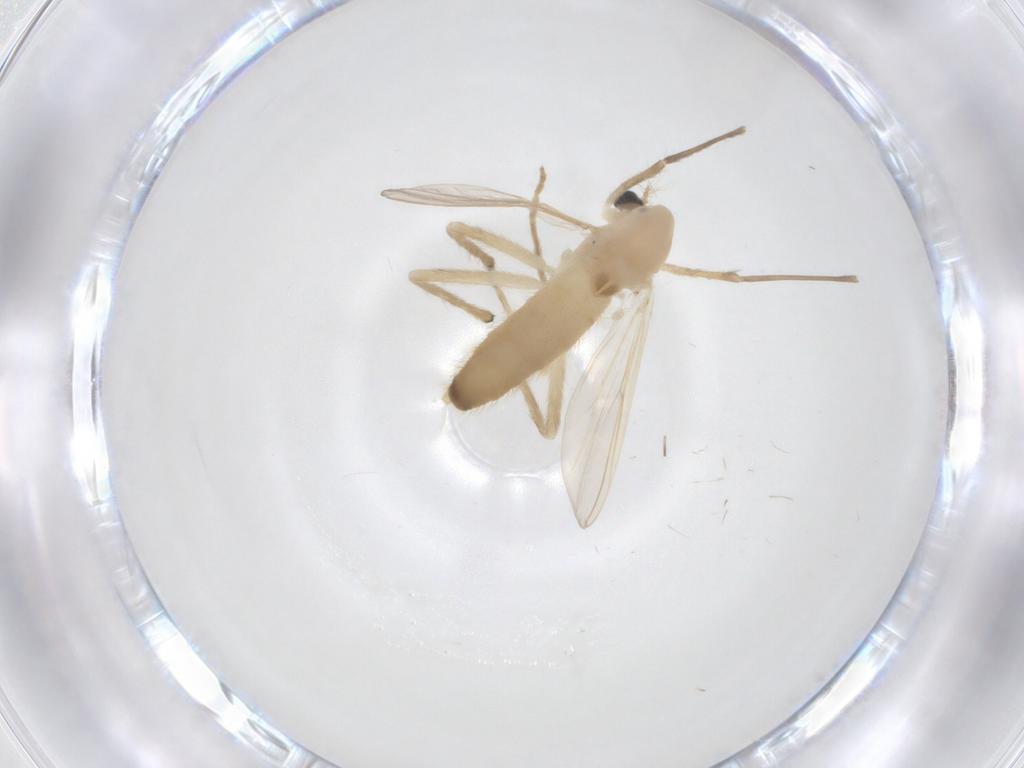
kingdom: Animalia
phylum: Arthropoda
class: Insecta
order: Diptera
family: Chironomidae
